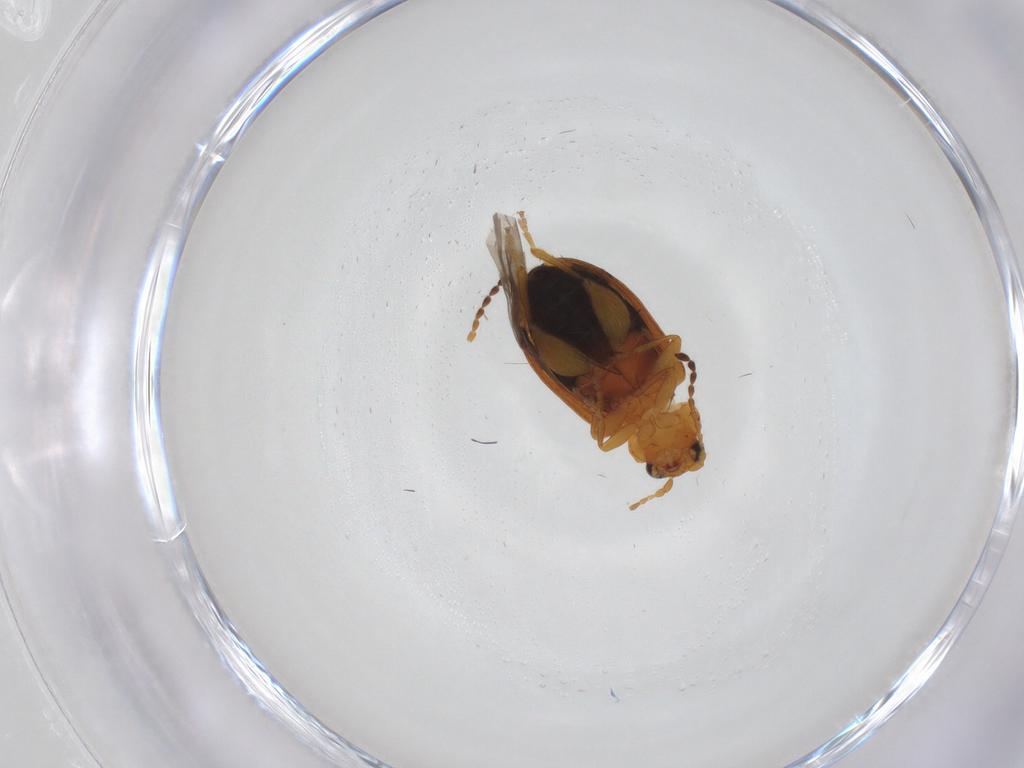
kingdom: Animalia
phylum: Arthropoda
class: Insecta
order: Coleoptera
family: Chrysomelidae
